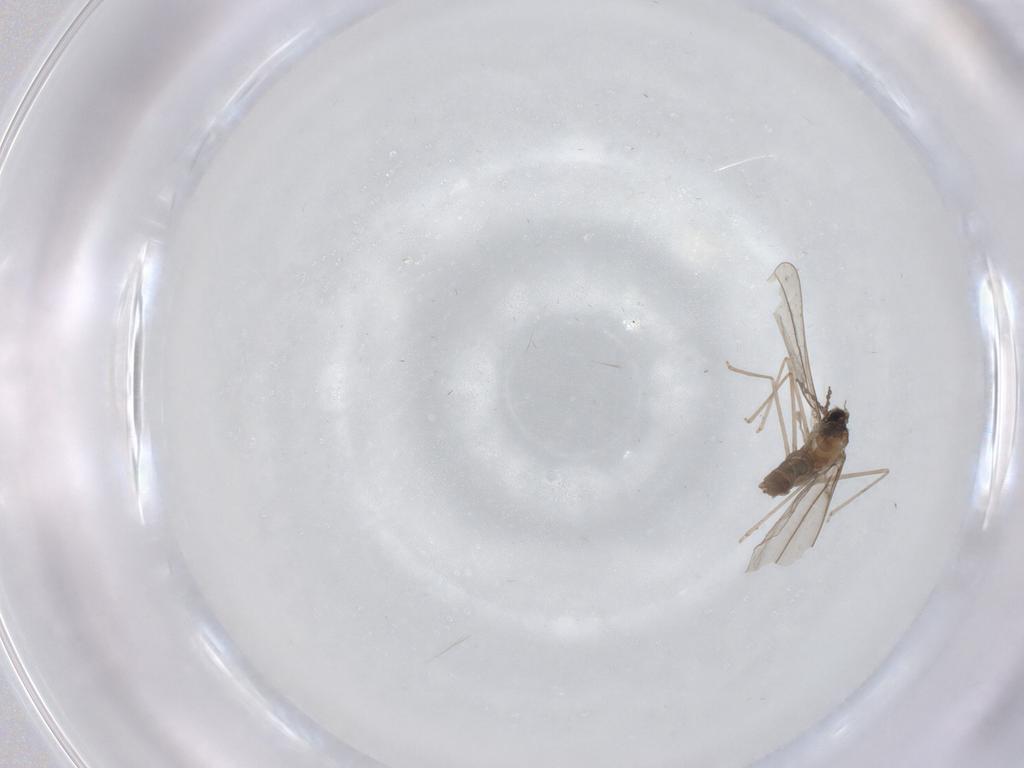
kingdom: Animalia
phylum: Arthropoda
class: Insecta
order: Diptera
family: Cecidomyiidae
